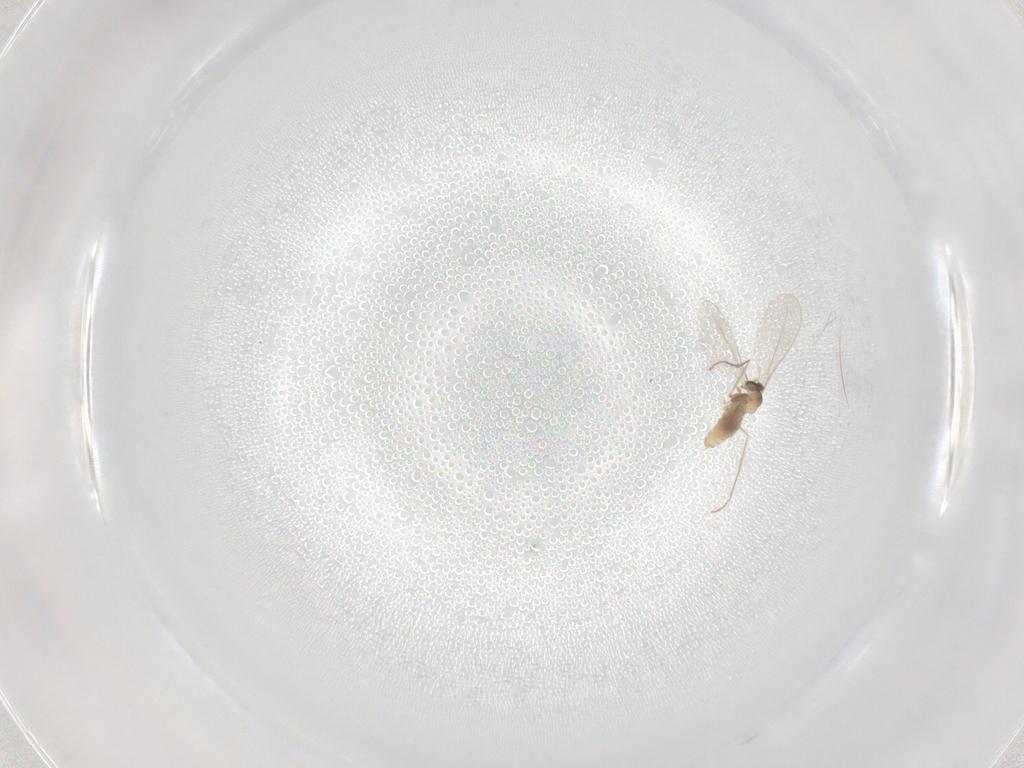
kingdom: Animalia
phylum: Arthropoda
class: Insecta
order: Diptera
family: Cecidomyiidae
